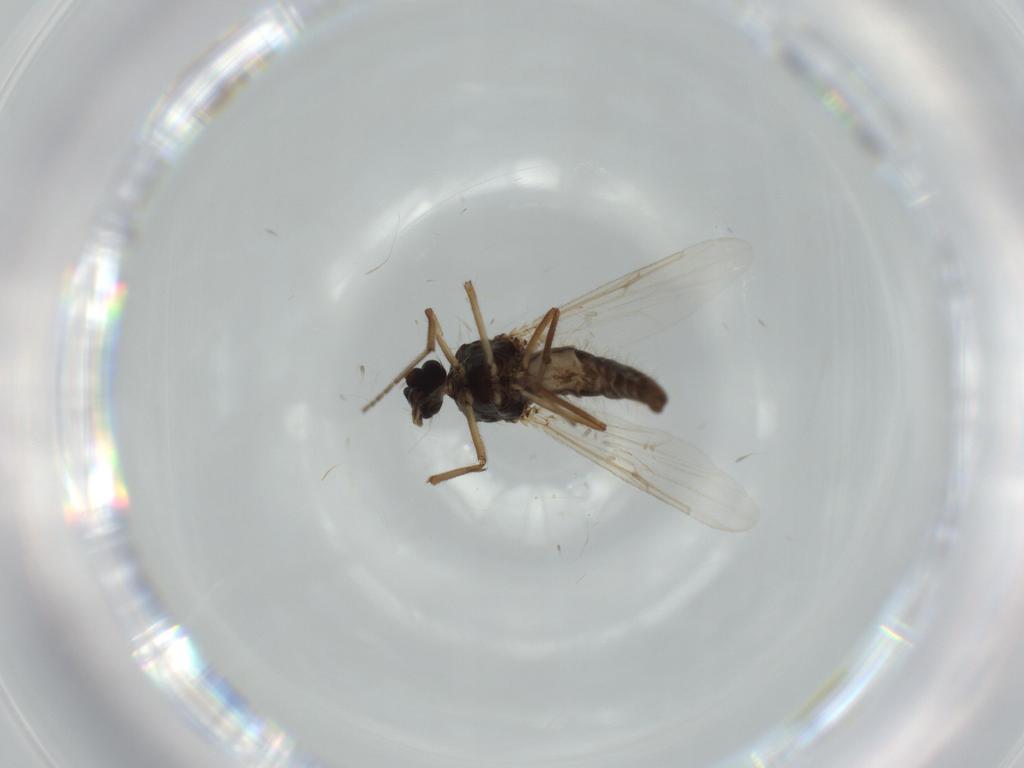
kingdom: Animalia
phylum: Arthropoda
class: Insecta
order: Diptera
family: Ceratopogonidae
